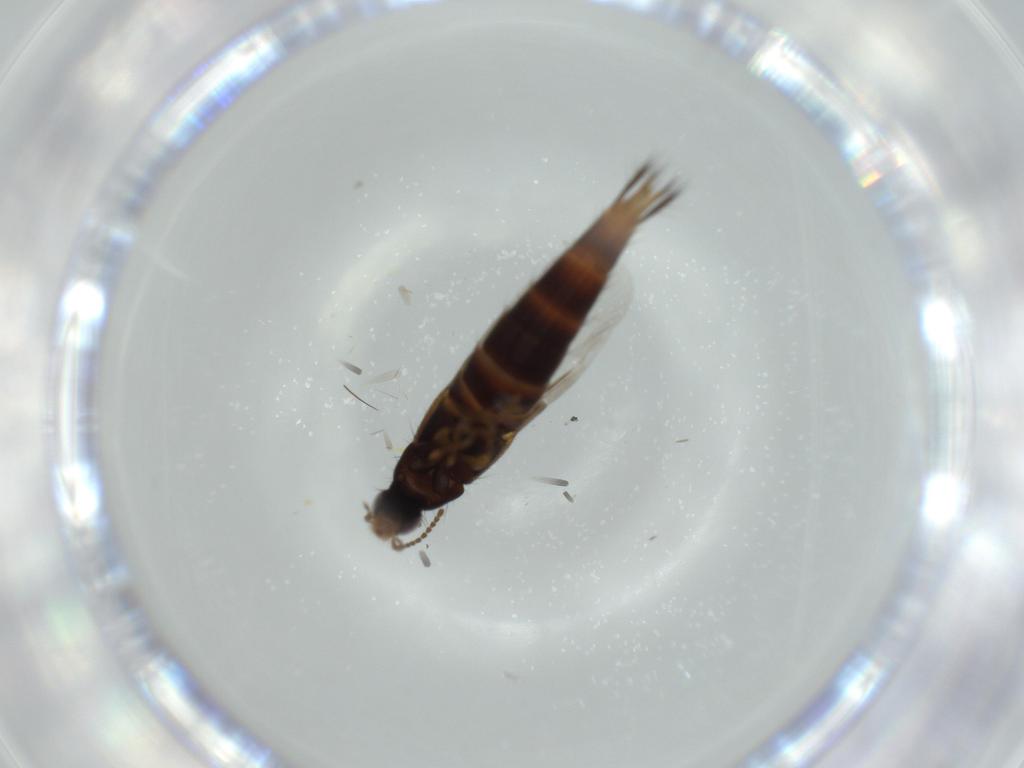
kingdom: Animalia
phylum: Arthropoda
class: Insecta
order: Coleoptera
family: Staphylinidae
